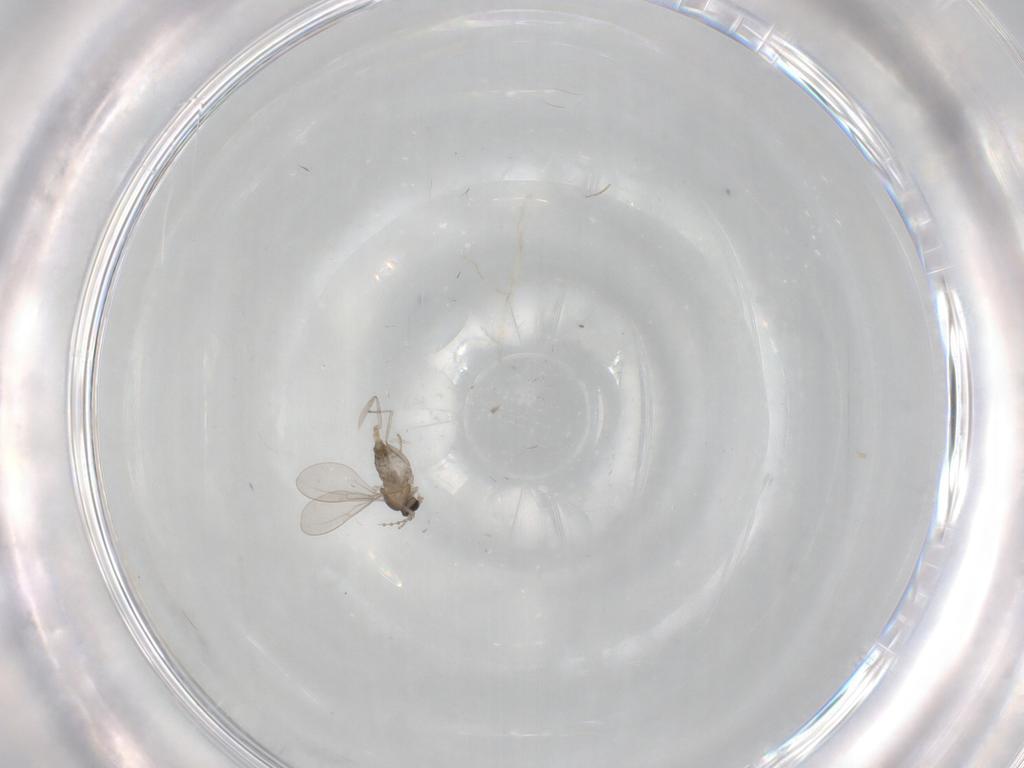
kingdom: Animalia
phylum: Arthropoda
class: Insecta
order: Diptera
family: Cecidomyiidae
